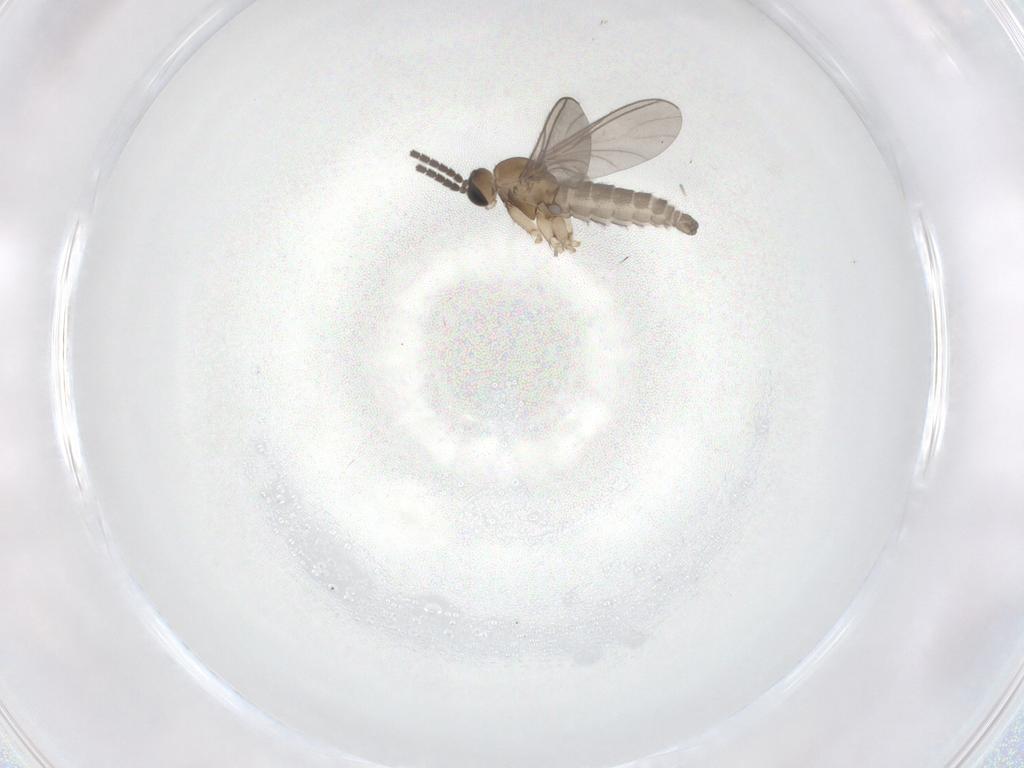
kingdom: Animalia
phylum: Arthropoda
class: Insecta
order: Diptera
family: Sciaridae
